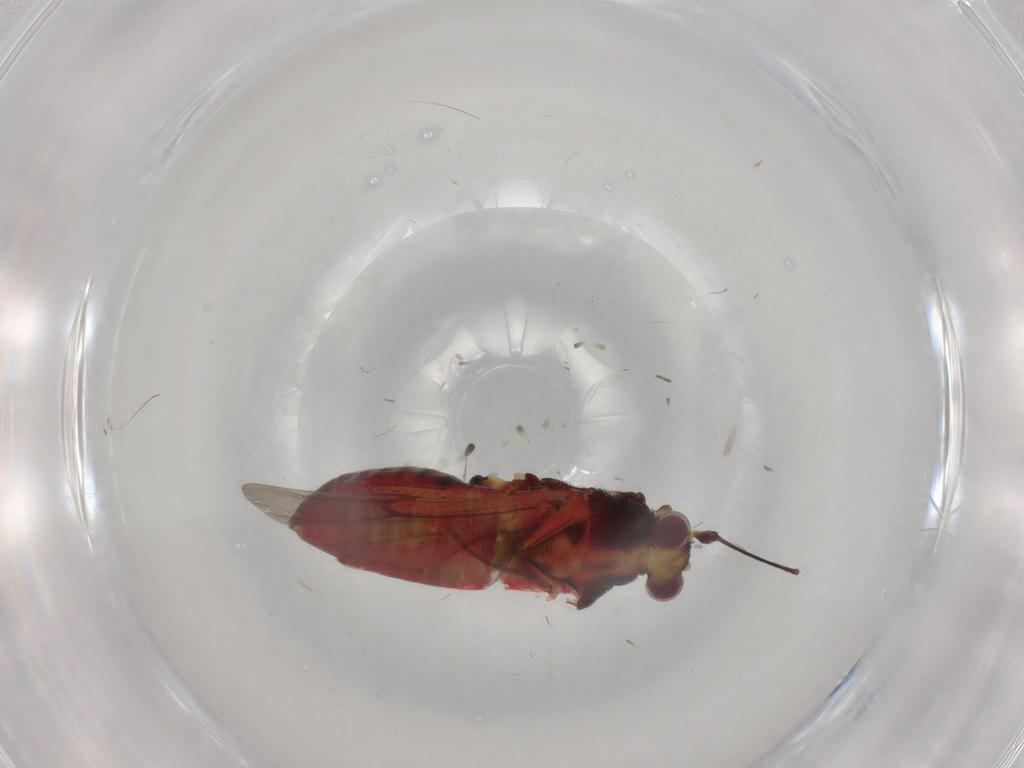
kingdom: Animalia
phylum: Arthropoda
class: Insecta
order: Hemiptera
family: Miridae
